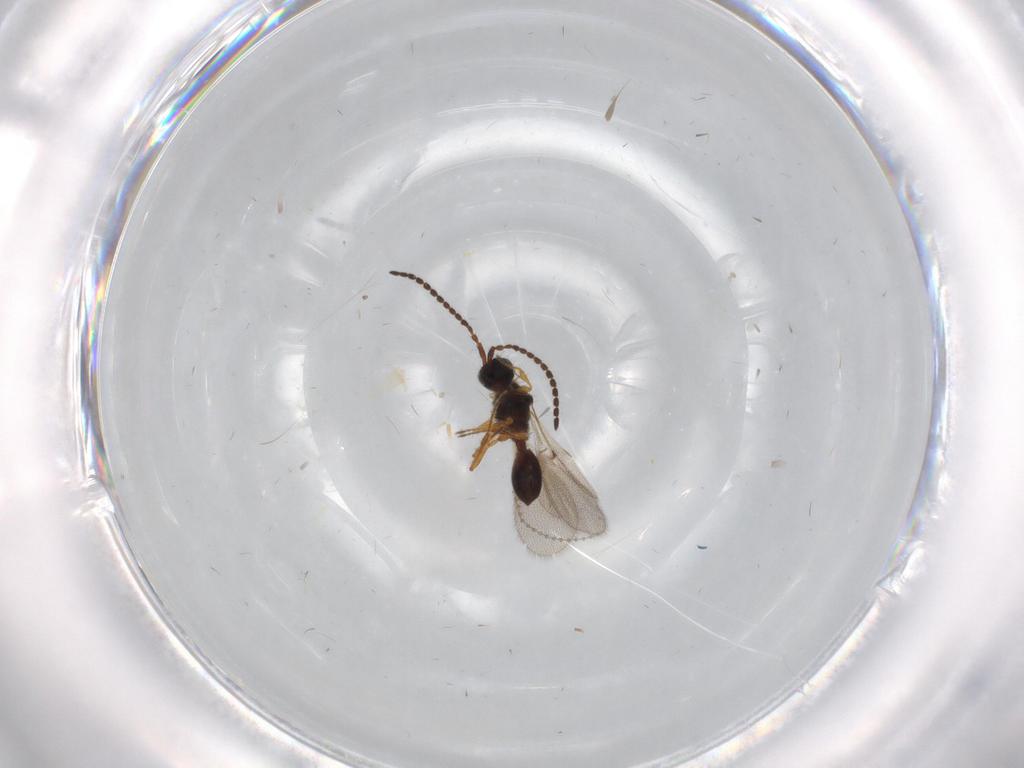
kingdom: Animalia
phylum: Arthropoda
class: Insecta
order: Hymenoptera
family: Diapriidae
